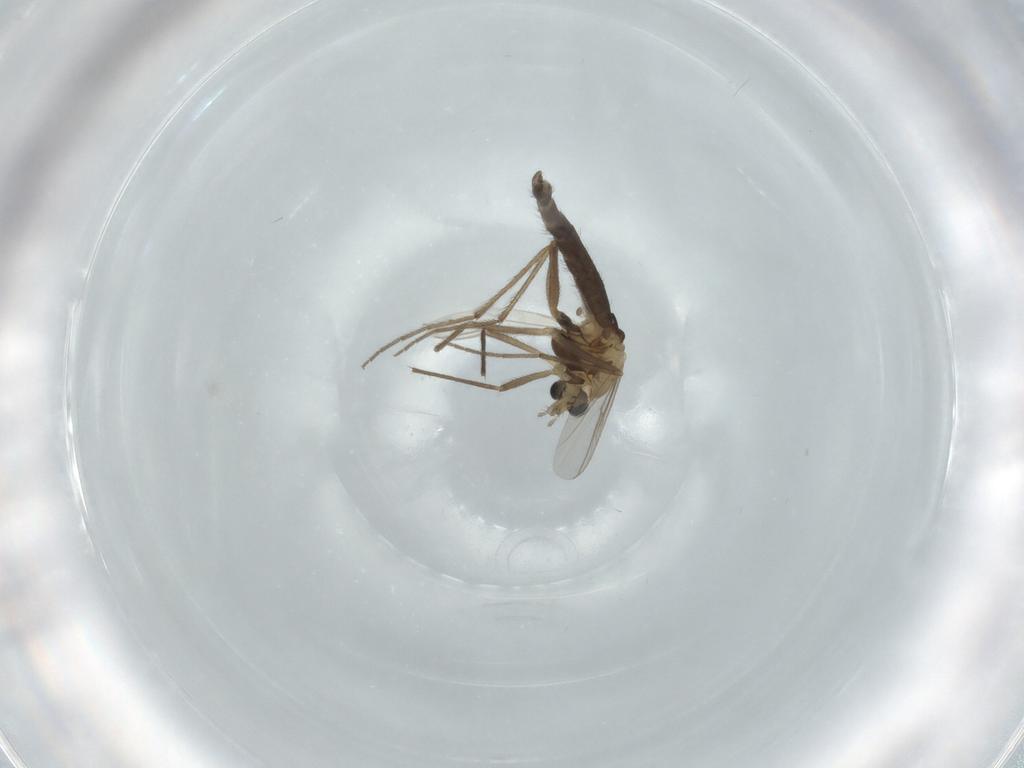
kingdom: Animalia
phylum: Arthropoda
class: Insecta
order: Diptera
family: Chironomidae
